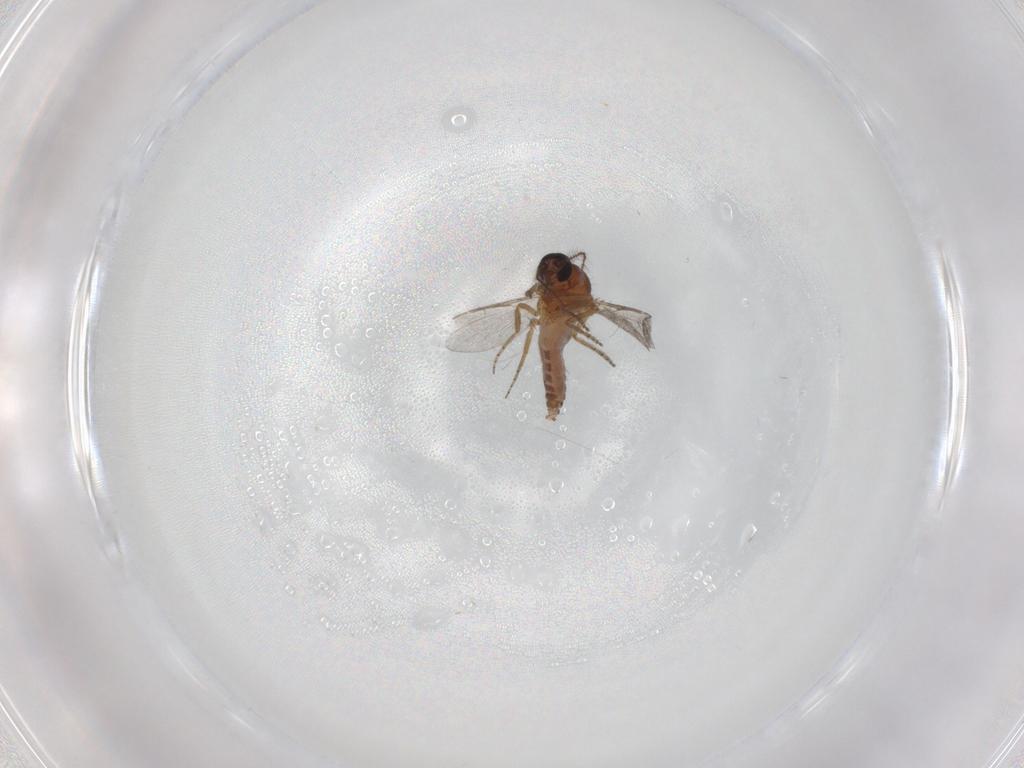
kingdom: Animalia
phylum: Arthropoda
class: Insecta
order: Diptera
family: Ceratopogonidae
